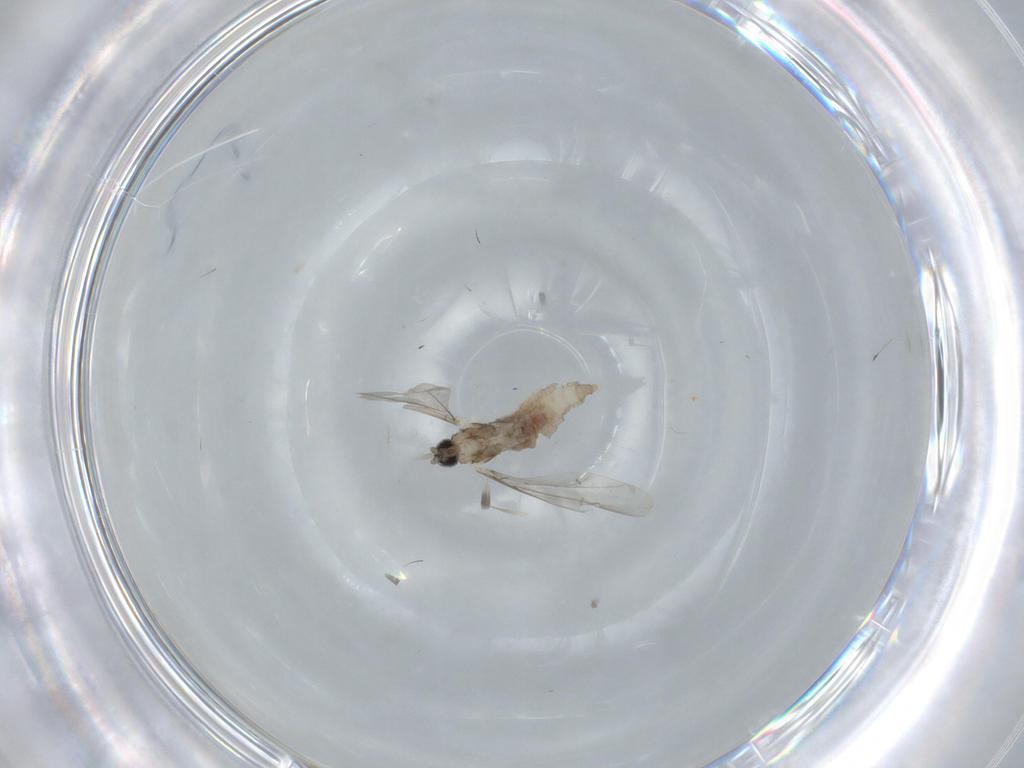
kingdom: Animalia
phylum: Arthropoda
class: Insecta
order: Diptera
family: Cecidomyiidae
